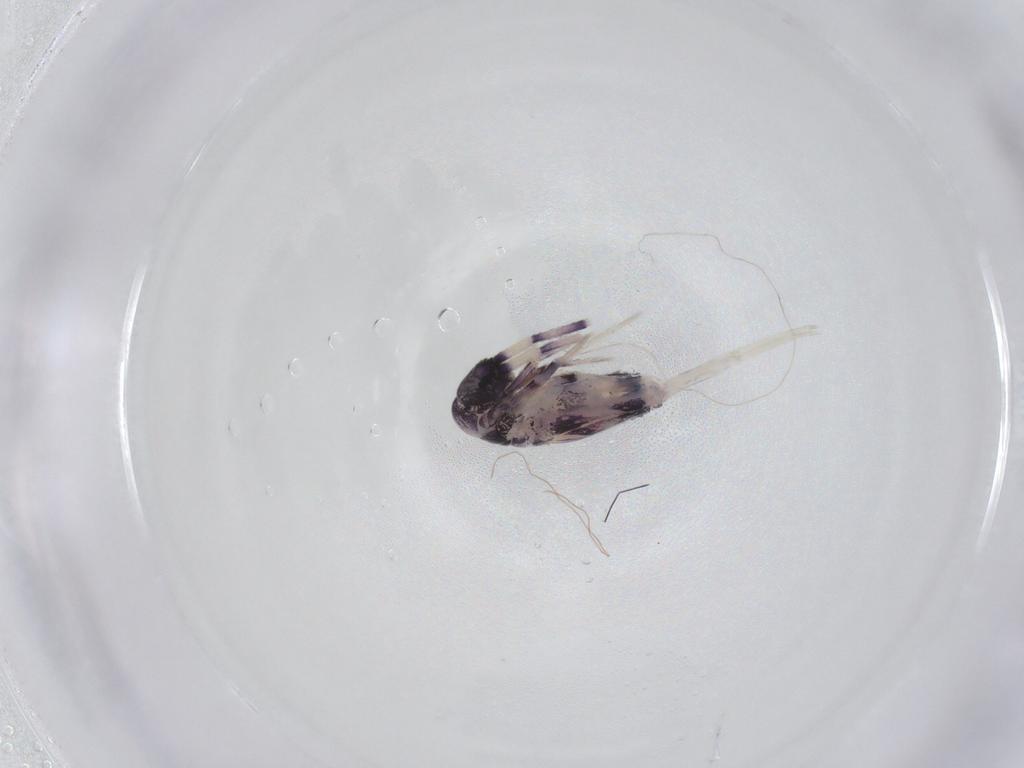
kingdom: Animalia
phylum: Arthropoda
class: Collembola
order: Entomobryomorpha
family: Entomobryidae
